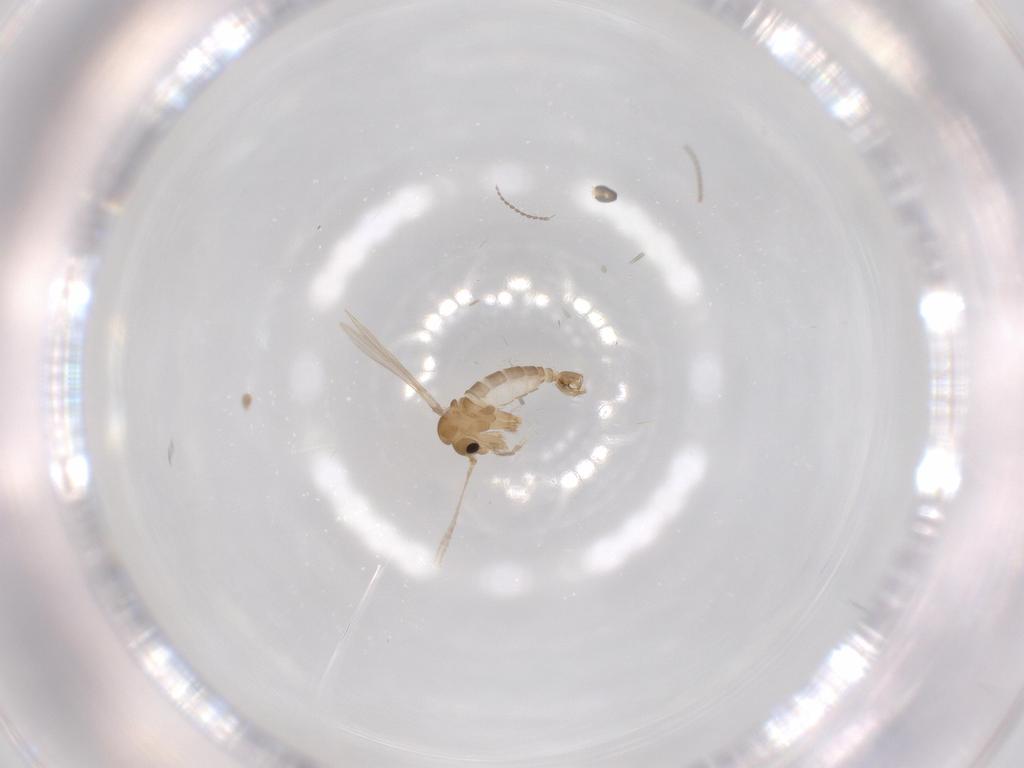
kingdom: Animalia
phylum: Arthropoda
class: Insecta
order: Diptera
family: Psychodidae
